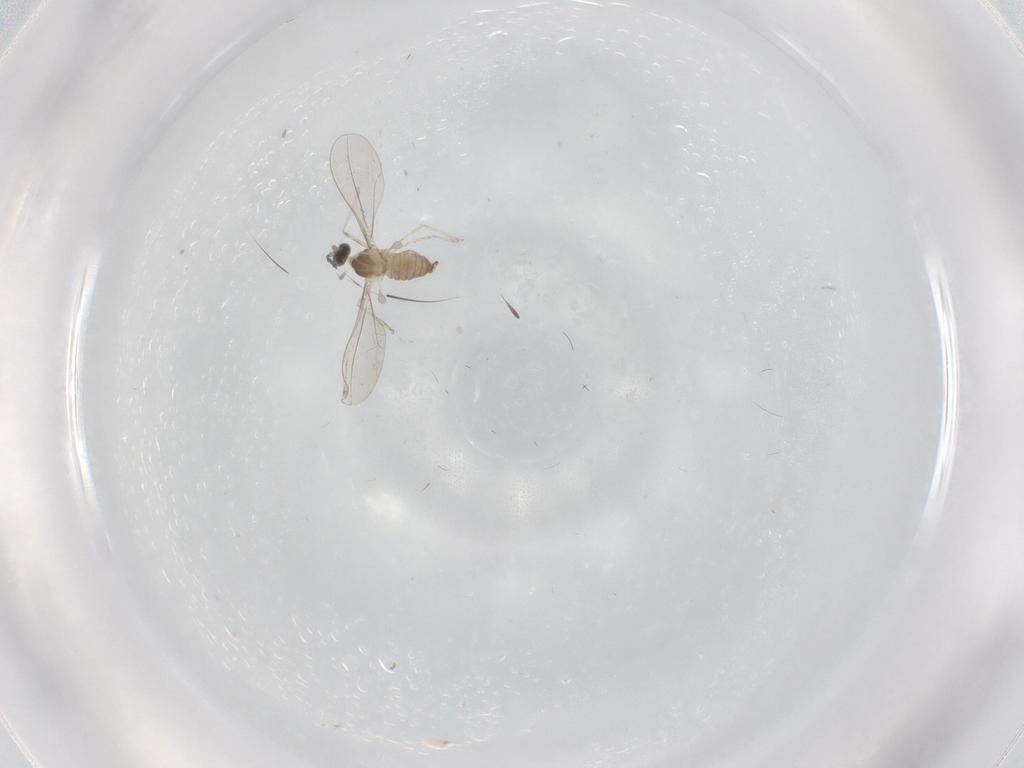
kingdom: Animalia
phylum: Arthropoda
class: Insecta
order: Diptera
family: Cecidomyiidae
